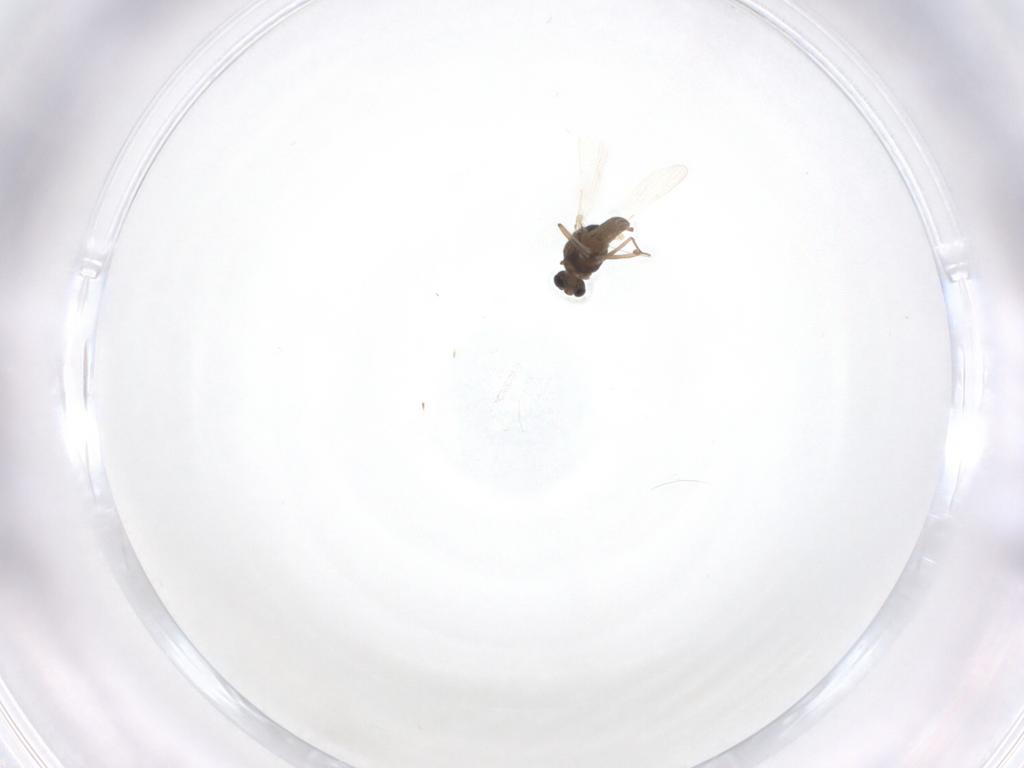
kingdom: Animalia
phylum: Arthropoda
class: Insecta
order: Diptera
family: Chironomidae
